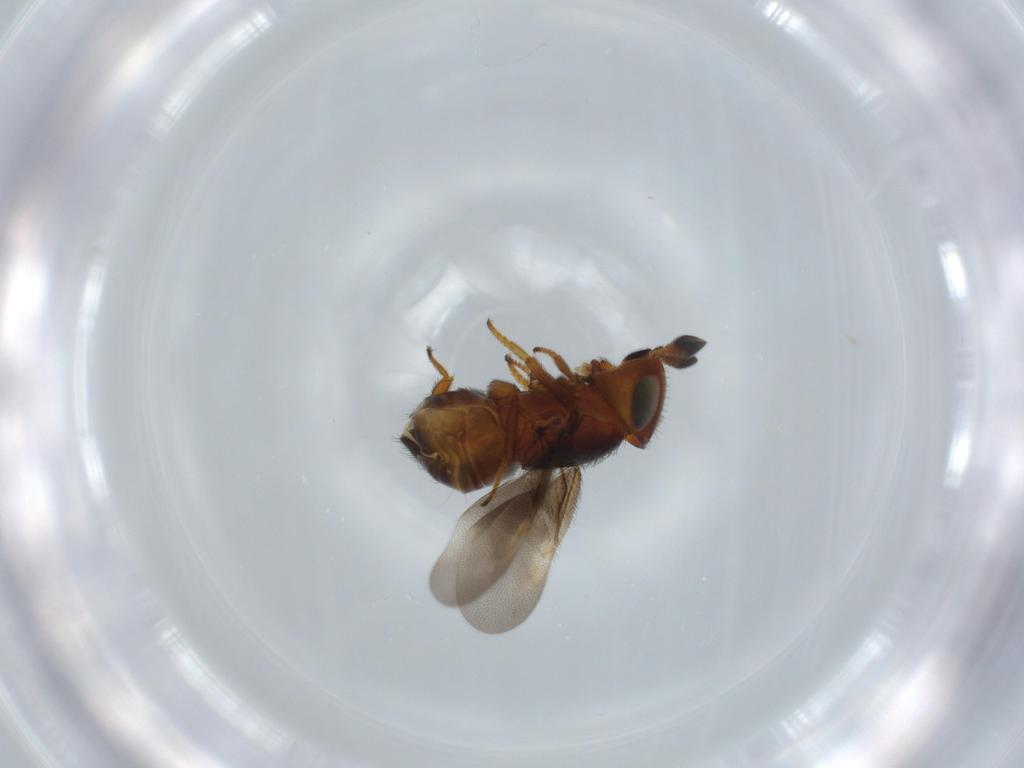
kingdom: Animalia
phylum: Arthropoda
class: Insecta
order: Hymenoptera
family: Encyrtidae
